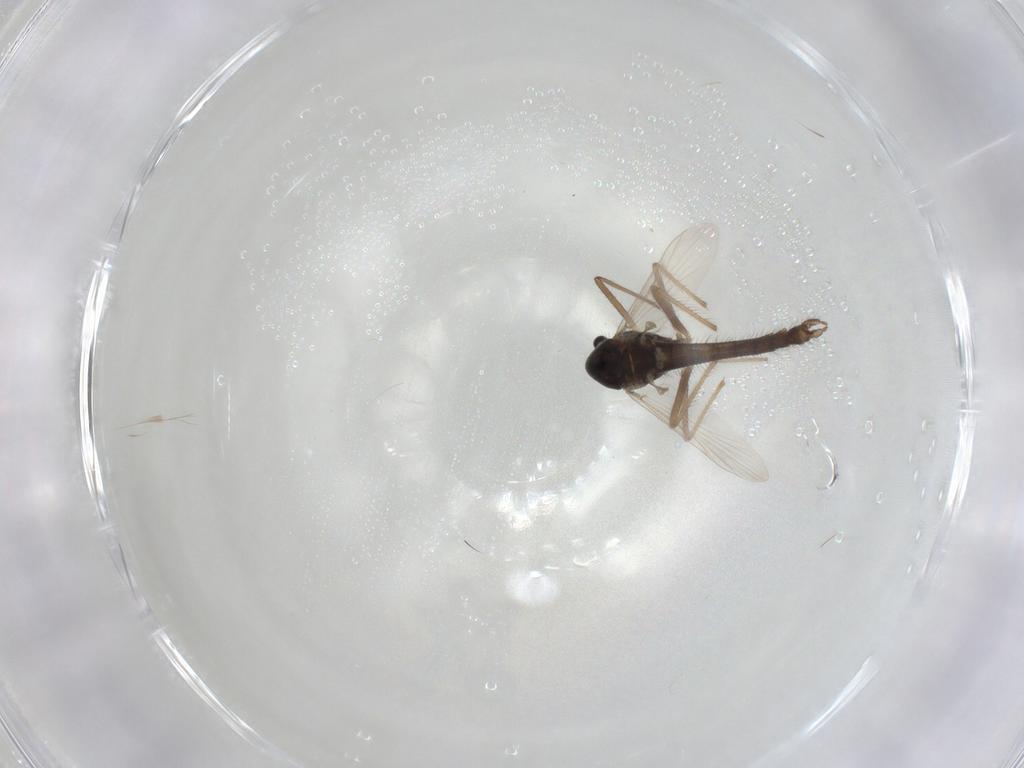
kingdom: Animalia
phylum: Arthropoda
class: Insecta
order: Diptera
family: Chironomidae
